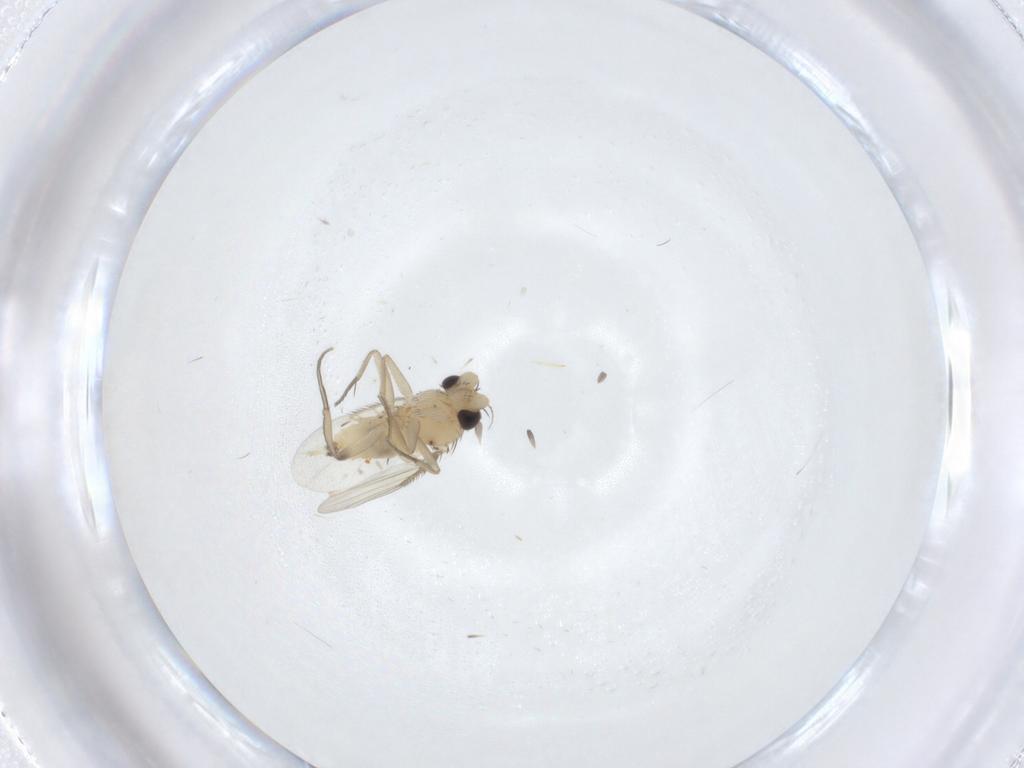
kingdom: Animalia
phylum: Arthropoda
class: Insecta
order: Diptera
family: Phoridae
